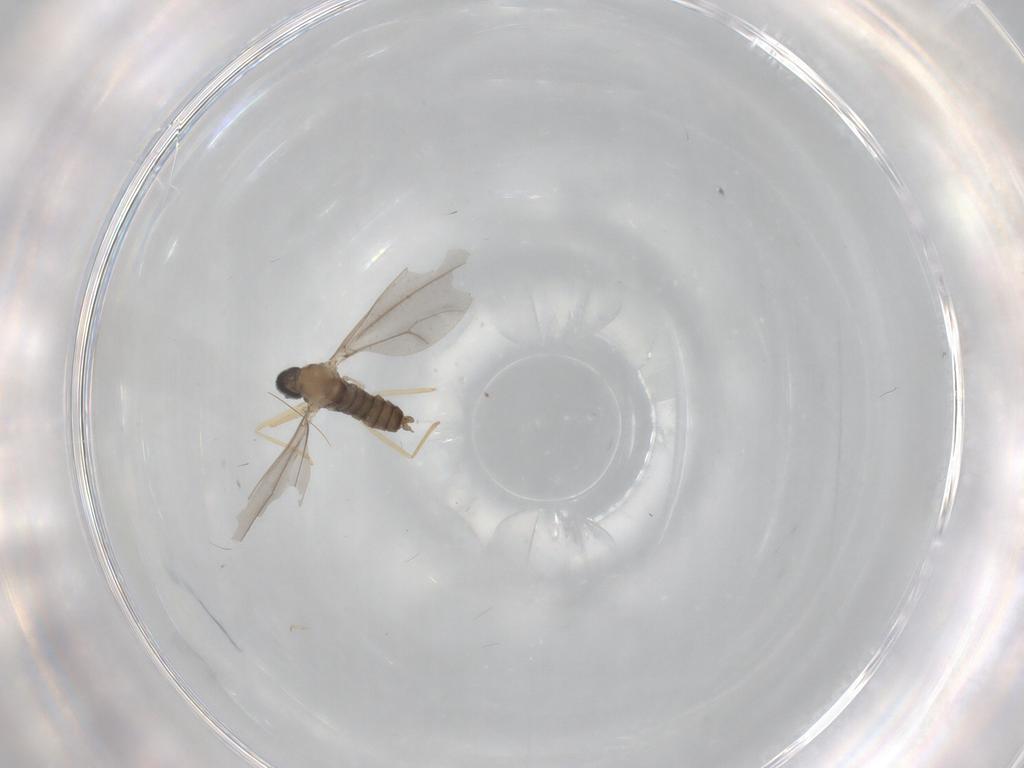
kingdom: Animalia
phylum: Arthropoda
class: Insecta
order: Diptera
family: Cecidomyiidae
